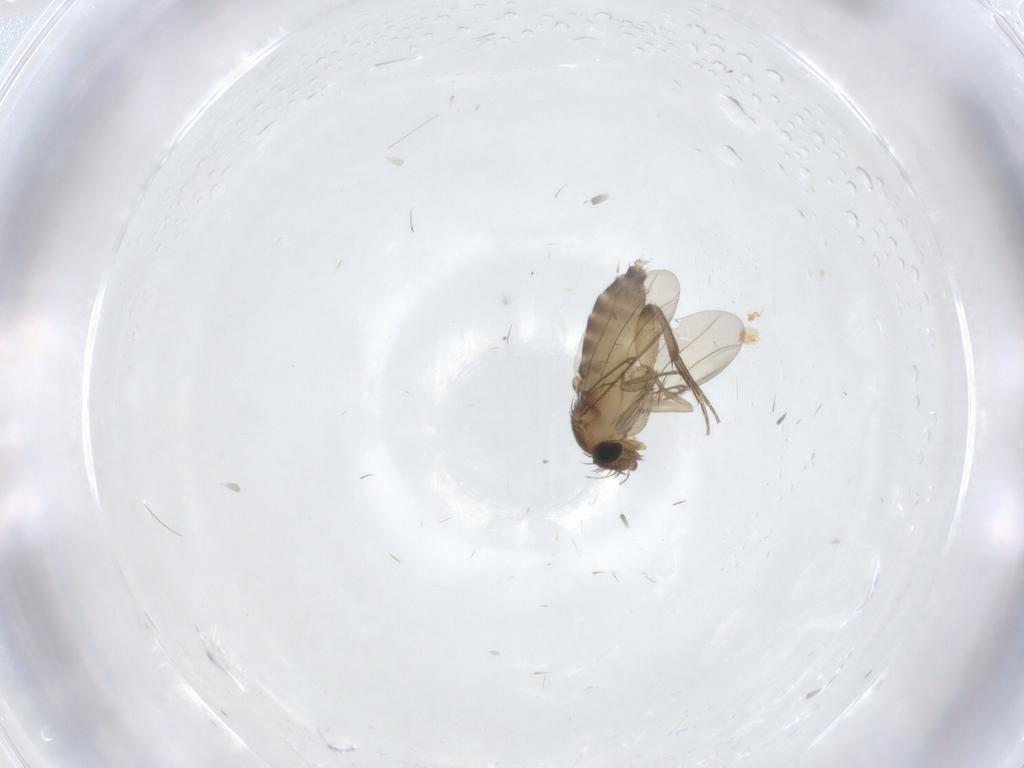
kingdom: Animalia
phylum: Arthropoda
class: Insecta
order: Diptera
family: Phoridae
